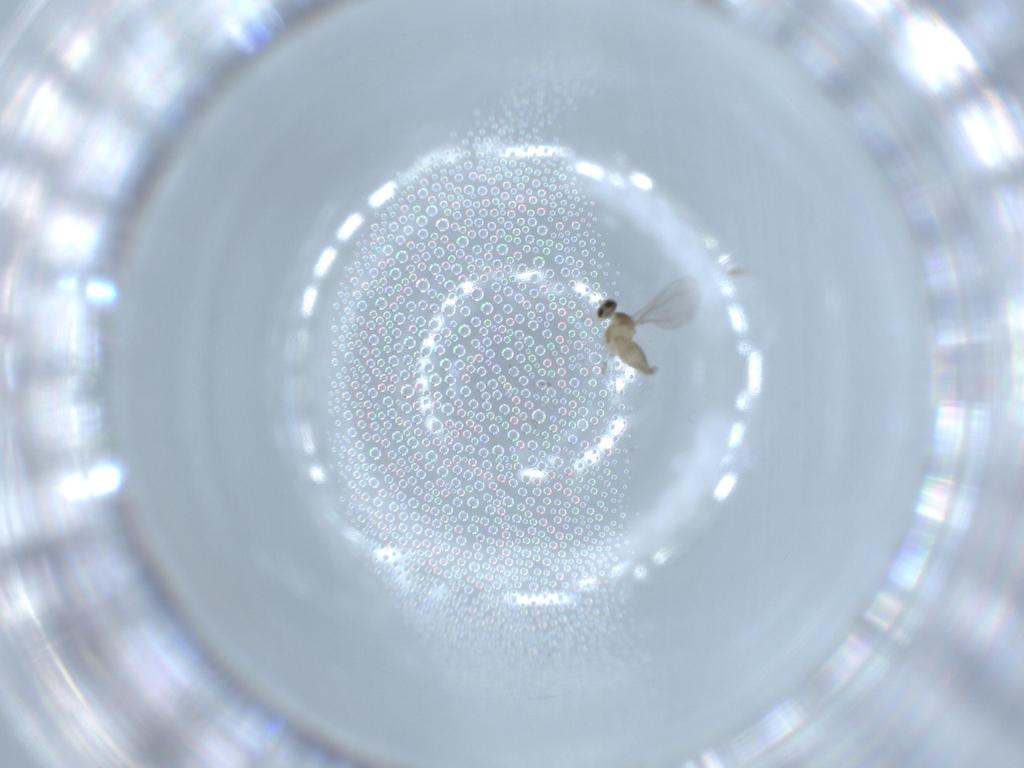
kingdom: Animalia
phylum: Arthropoda
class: Insecta
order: Diptera
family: Cecidomyiidae
